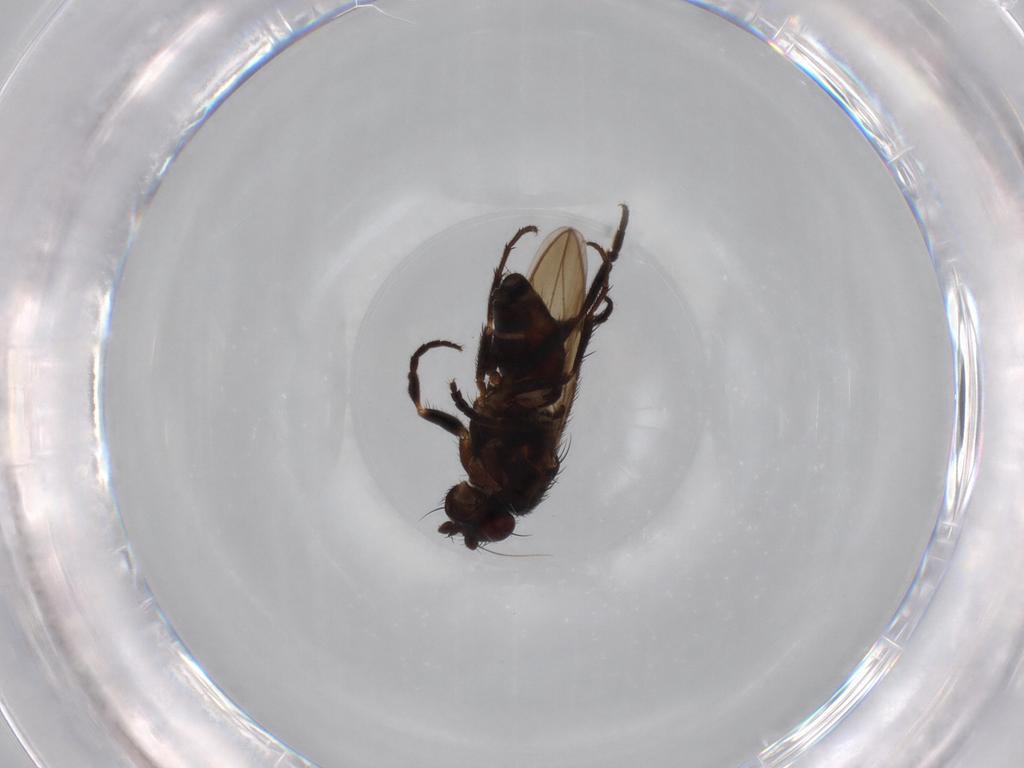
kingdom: Animalia
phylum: Arthropoda
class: Insecta
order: Diptera
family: Sphaeroceridae
